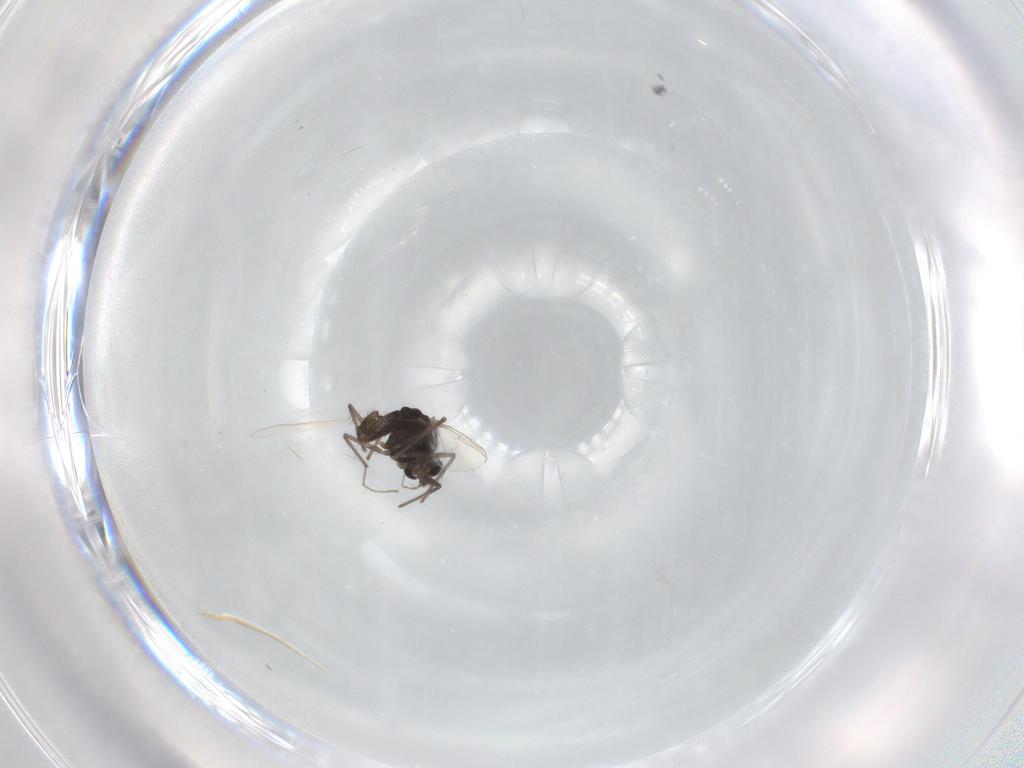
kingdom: Animalia
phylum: Arthropoda
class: Insecta
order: Diptera
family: Chironomidae
